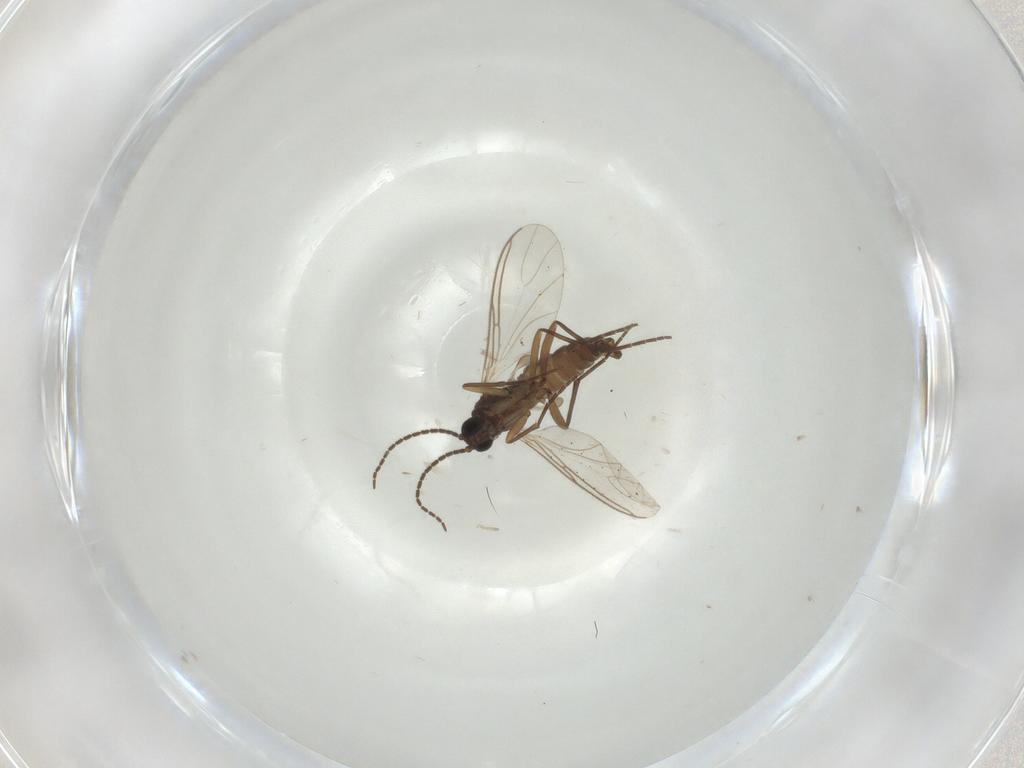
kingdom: Animalia
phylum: Arthropoda
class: Insecta
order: Diptera
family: Sciaridae
